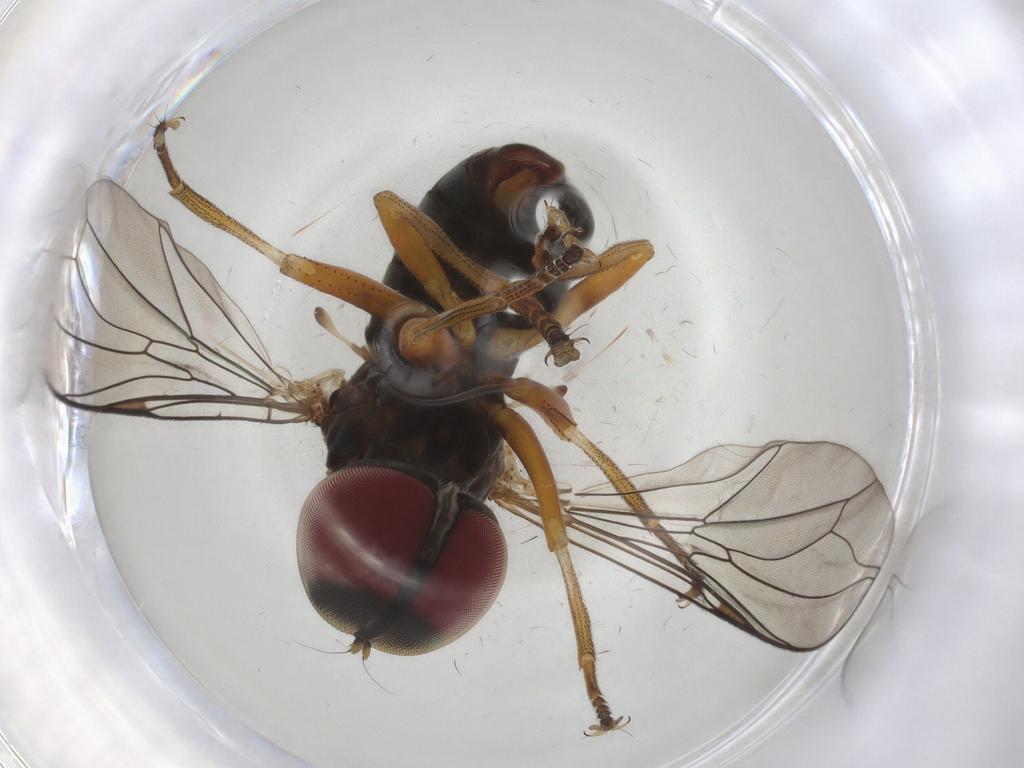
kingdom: Animalia
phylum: Arthropoda
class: Insecta
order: Diptera
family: Pipunculidae
